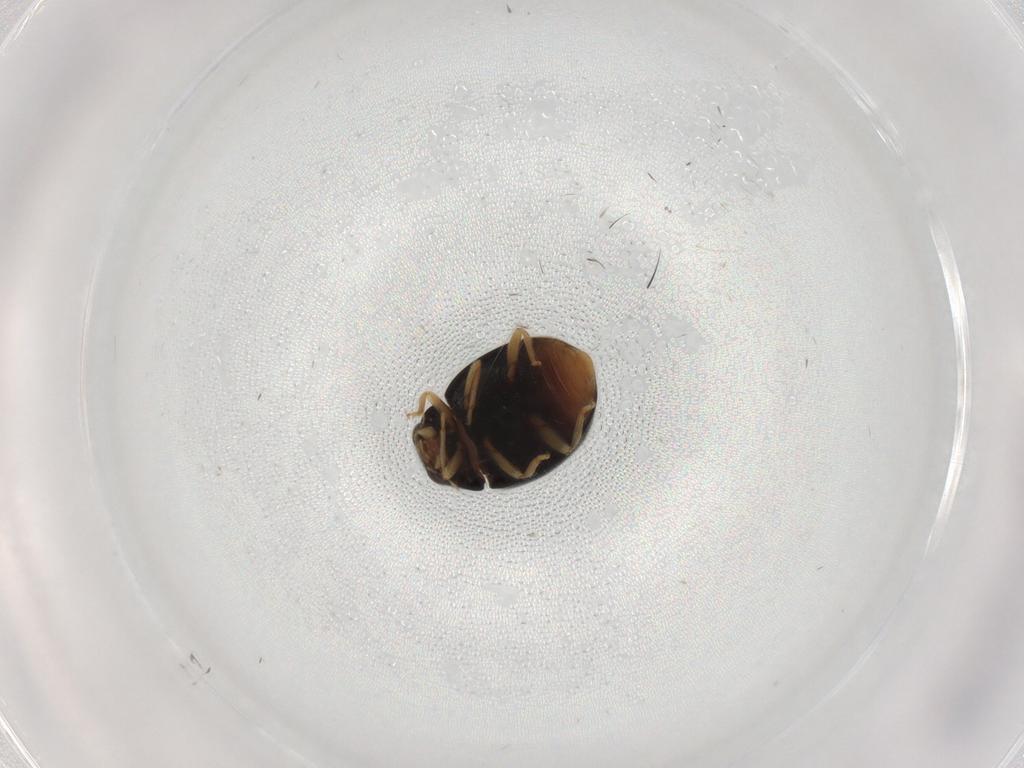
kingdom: Animalia
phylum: Arthropoda
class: Insecta
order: Coleoptera
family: Coccinellidae
